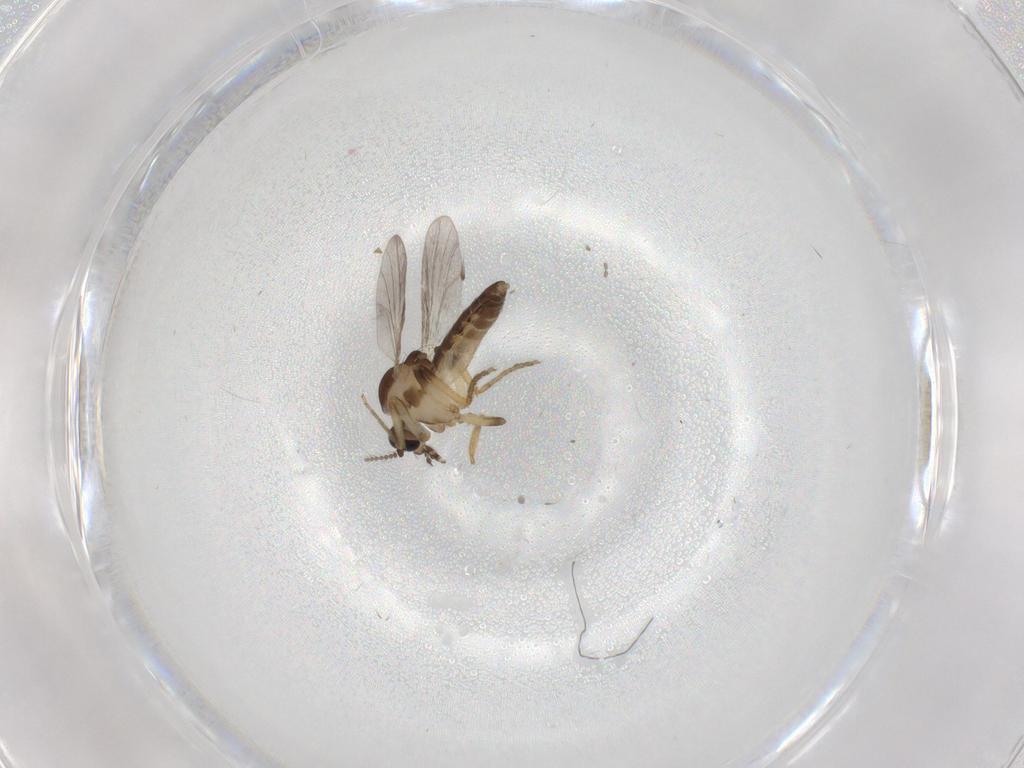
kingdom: Animalia
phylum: Arthropoda
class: Insecta
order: Diptera
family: Ceratopogonidae
